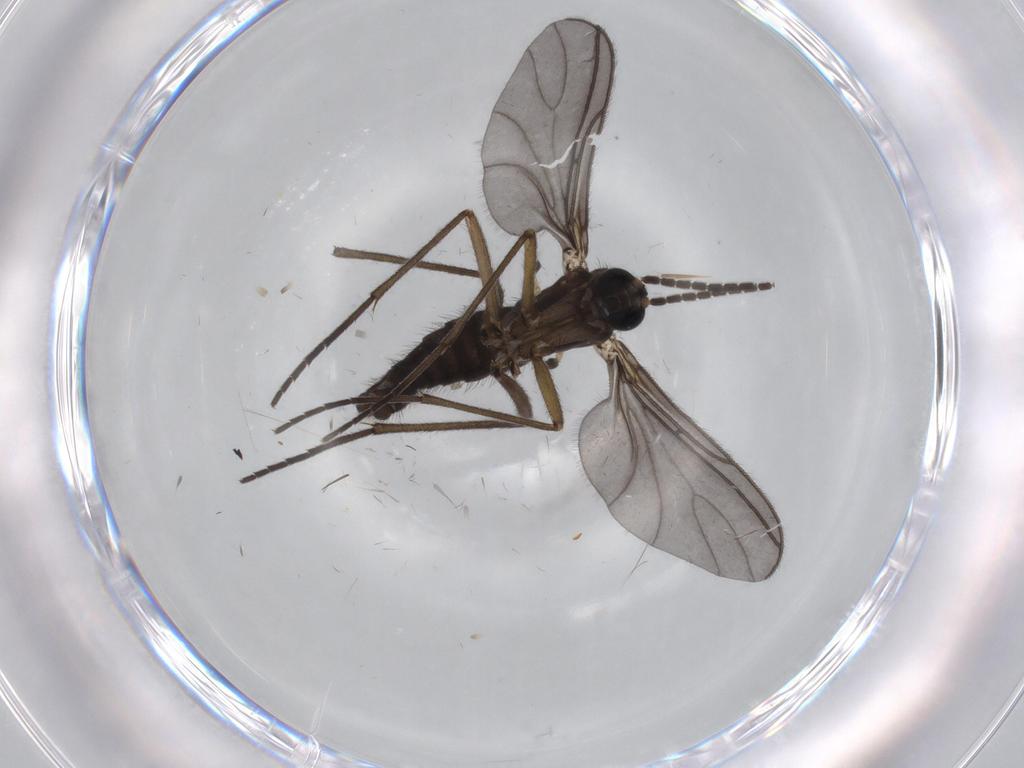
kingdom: Animalia
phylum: Arthropoda
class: Insecta
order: Diptera
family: Sciaridae
